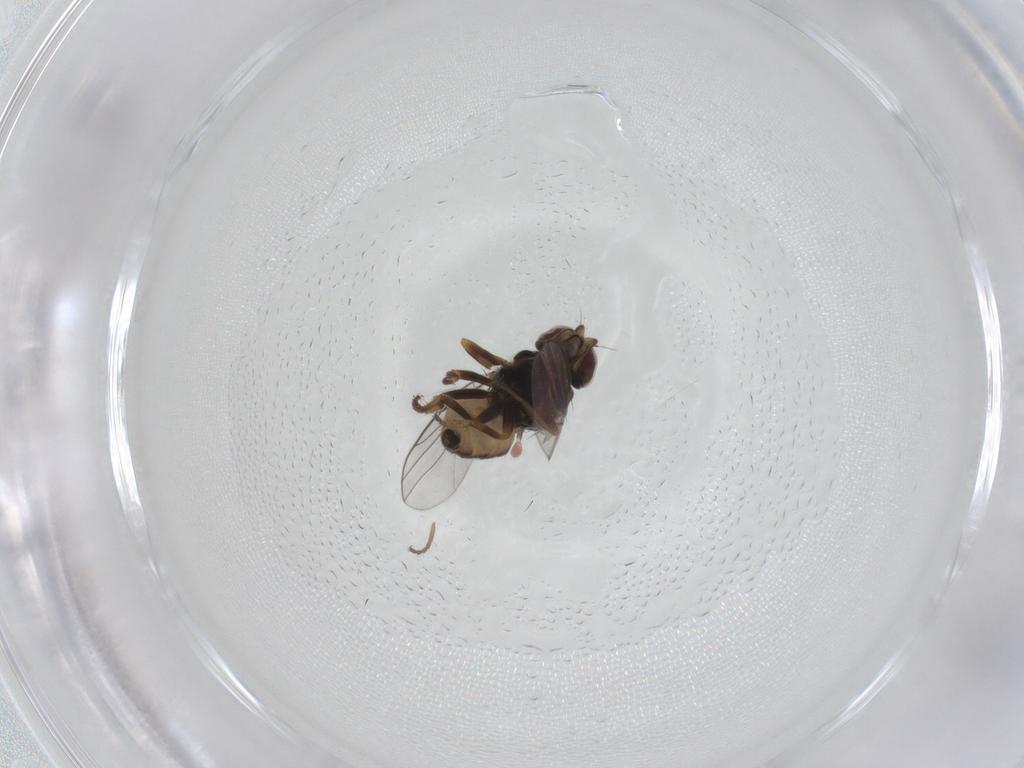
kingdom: Animalia
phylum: Arthropoda
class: Insecta
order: Diptera
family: Chloropidae
